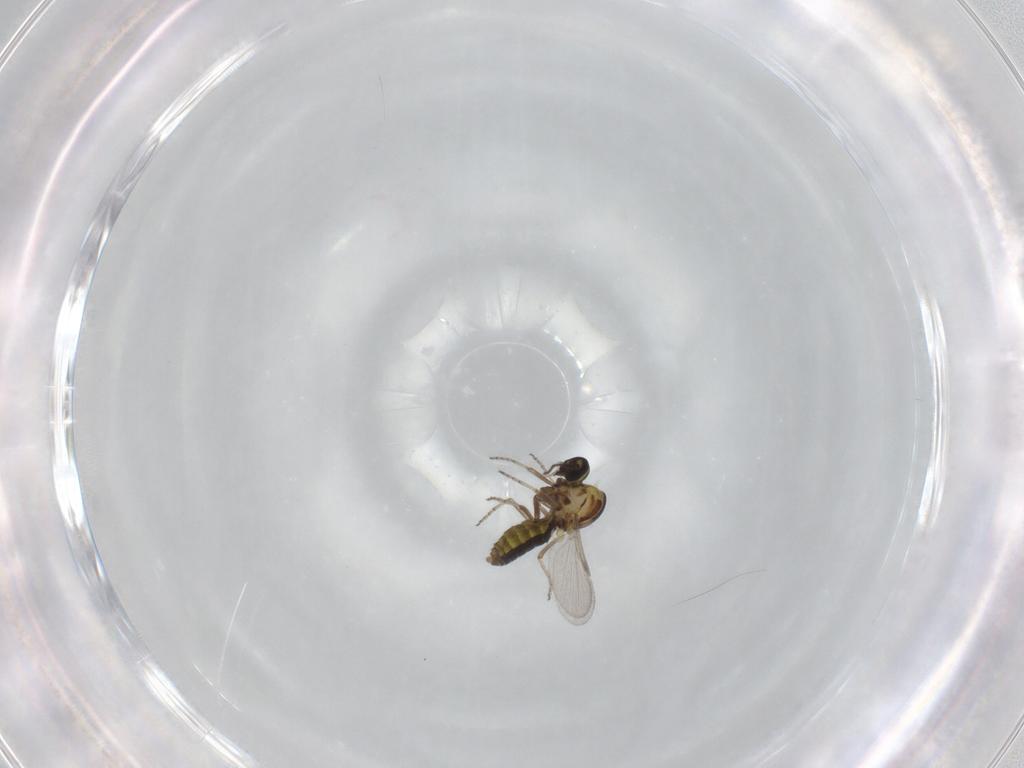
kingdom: Animalia
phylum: Arthropoda
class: Insecta
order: Diptera
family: Ceratopogonidae
